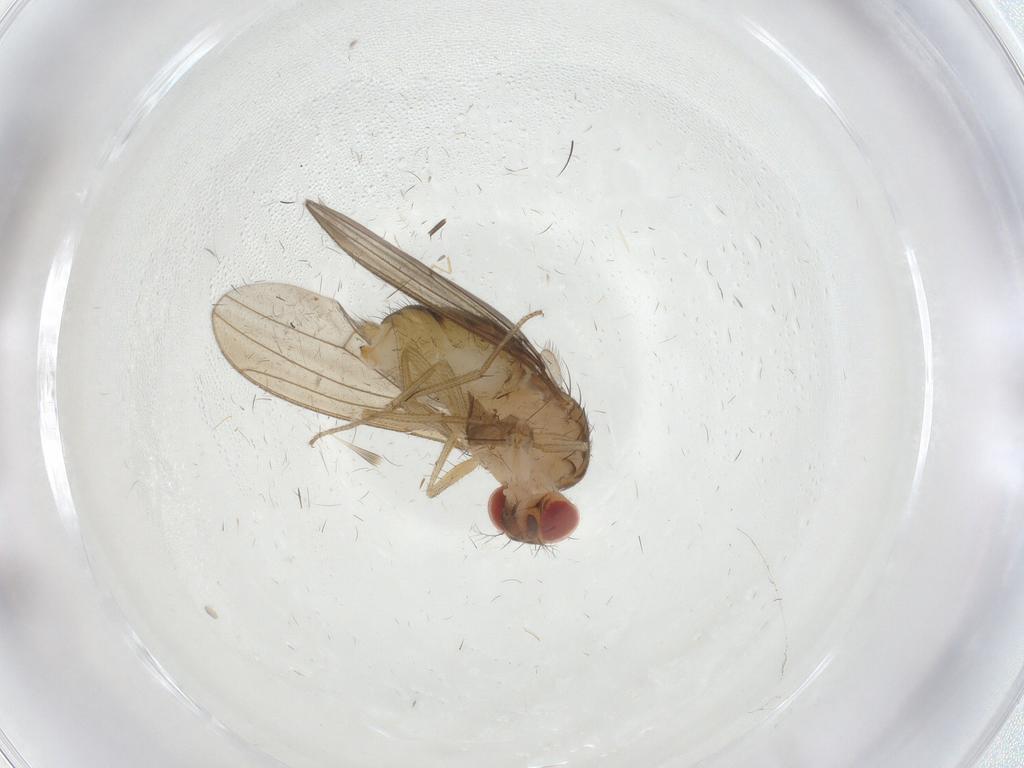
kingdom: Animalia
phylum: Arthropoda
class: Insecta
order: Diptera
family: Drosophilidae
